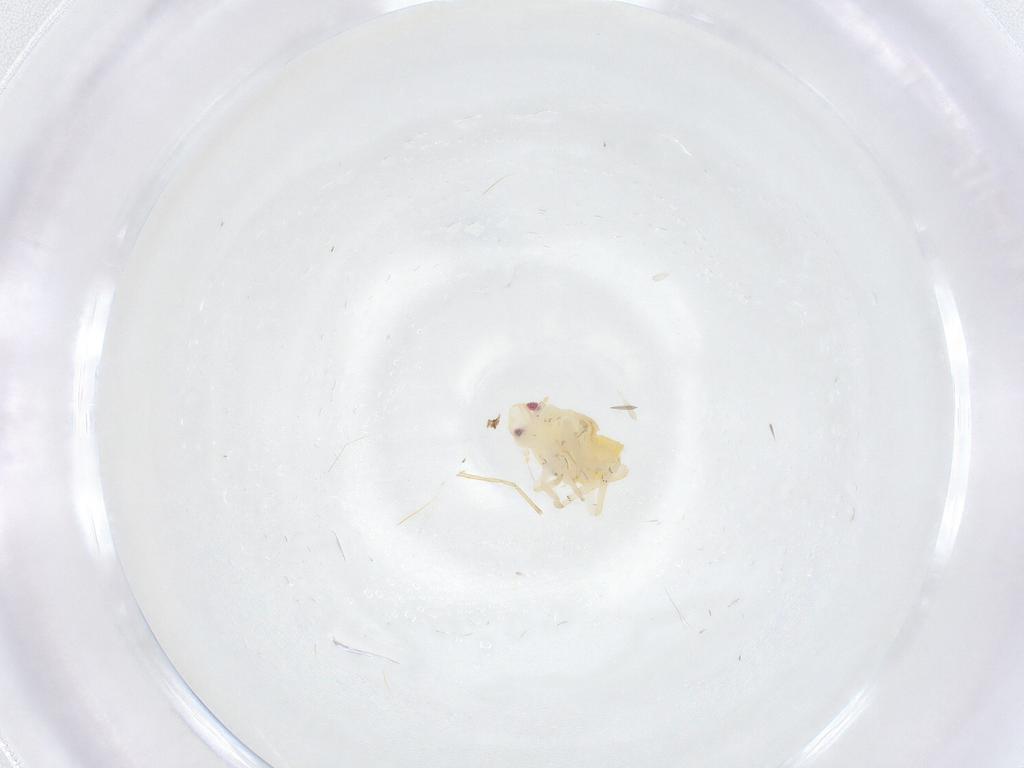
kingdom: Animalia
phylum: Arthropoda
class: Insecta
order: Hemiptera
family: Fulgoroidea_incertae_sedis
